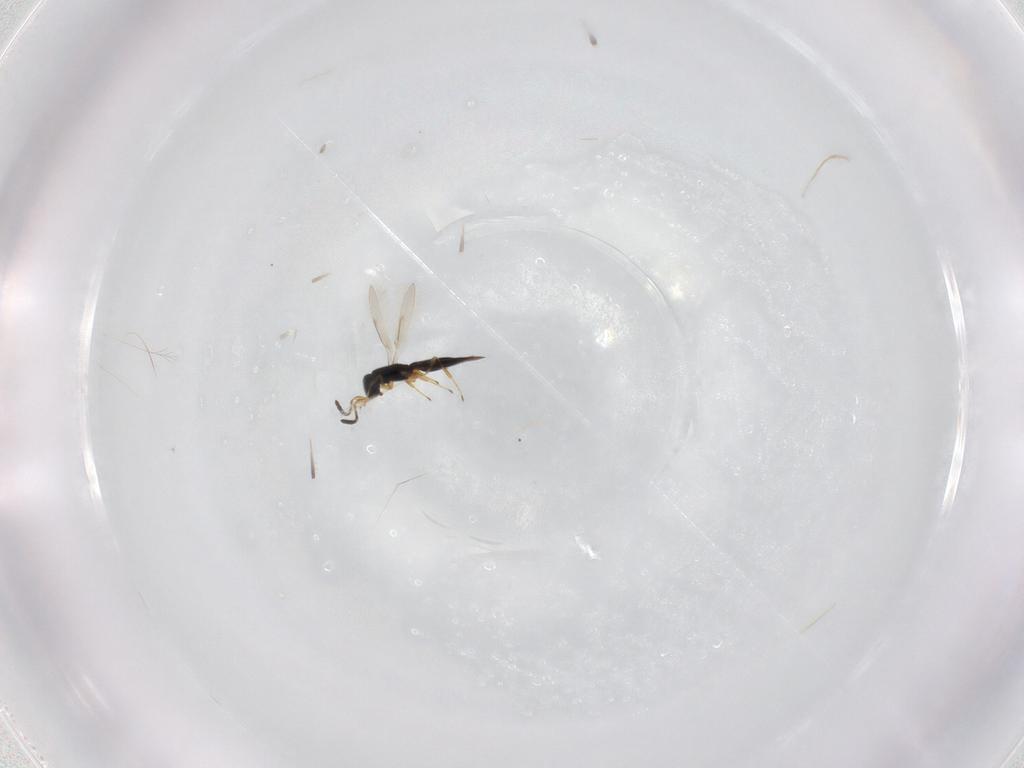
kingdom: Animalia
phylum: Arthropoda
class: Insecta
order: Hymenoptera
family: Scelionidae
